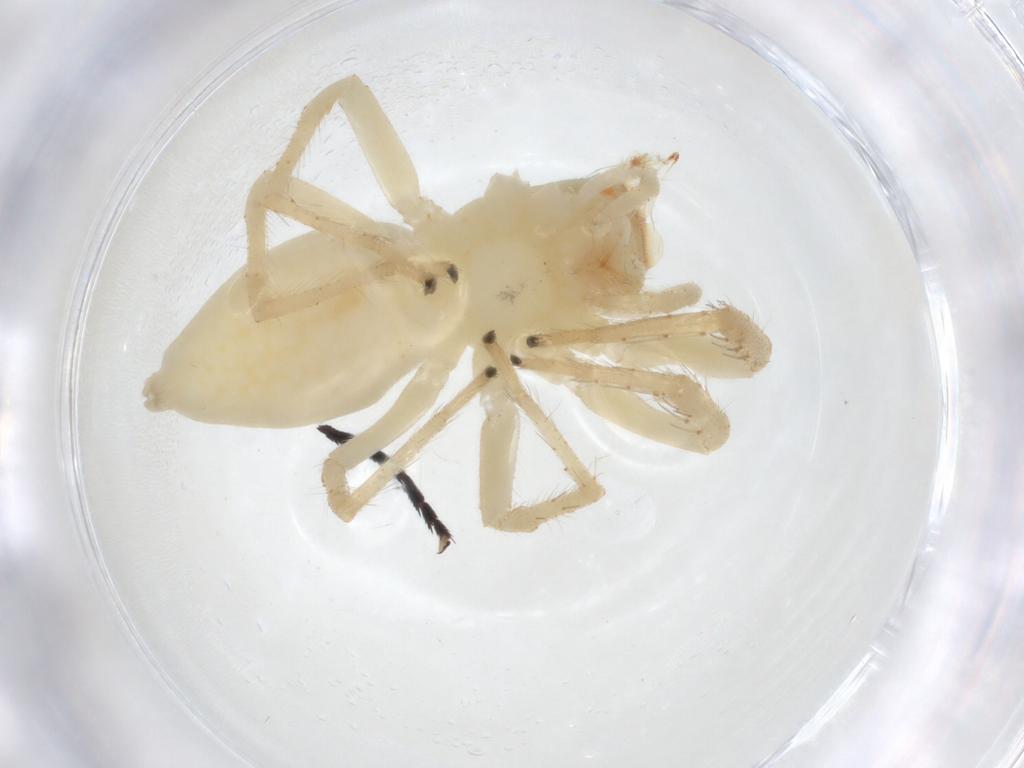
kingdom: Animalia
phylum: Arthropoda
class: Arachnida
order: Araneae
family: Salticidae
